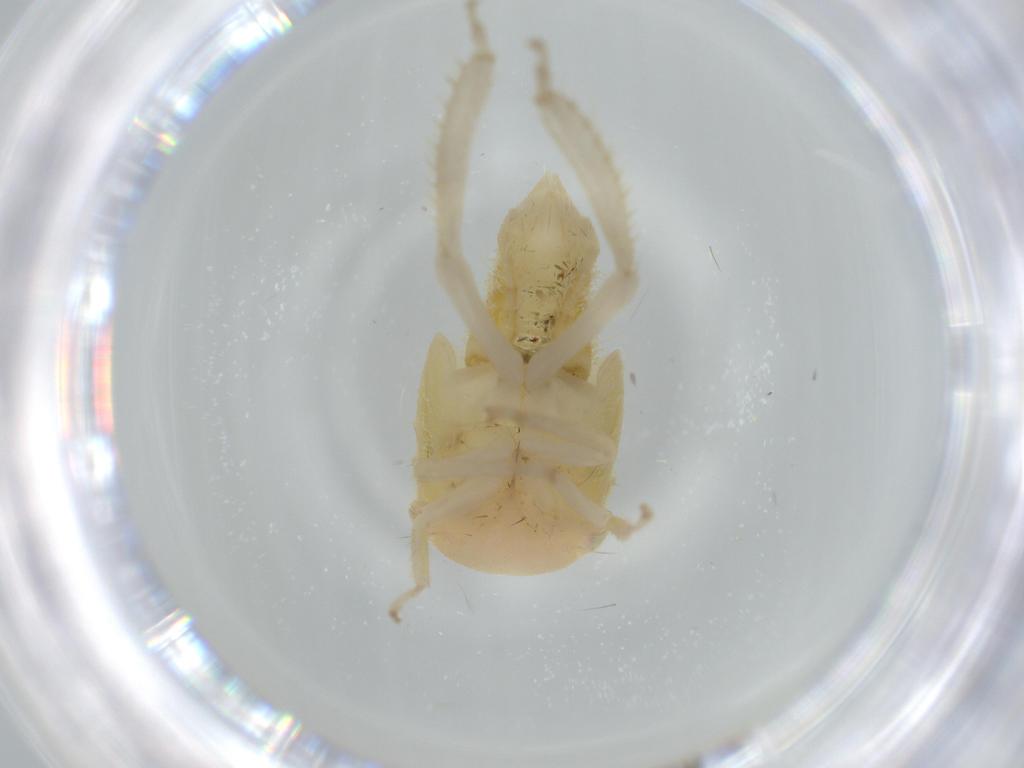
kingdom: Animalia
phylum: Arthropoda
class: Insecta
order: Hemiptera
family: Cicadellidae
